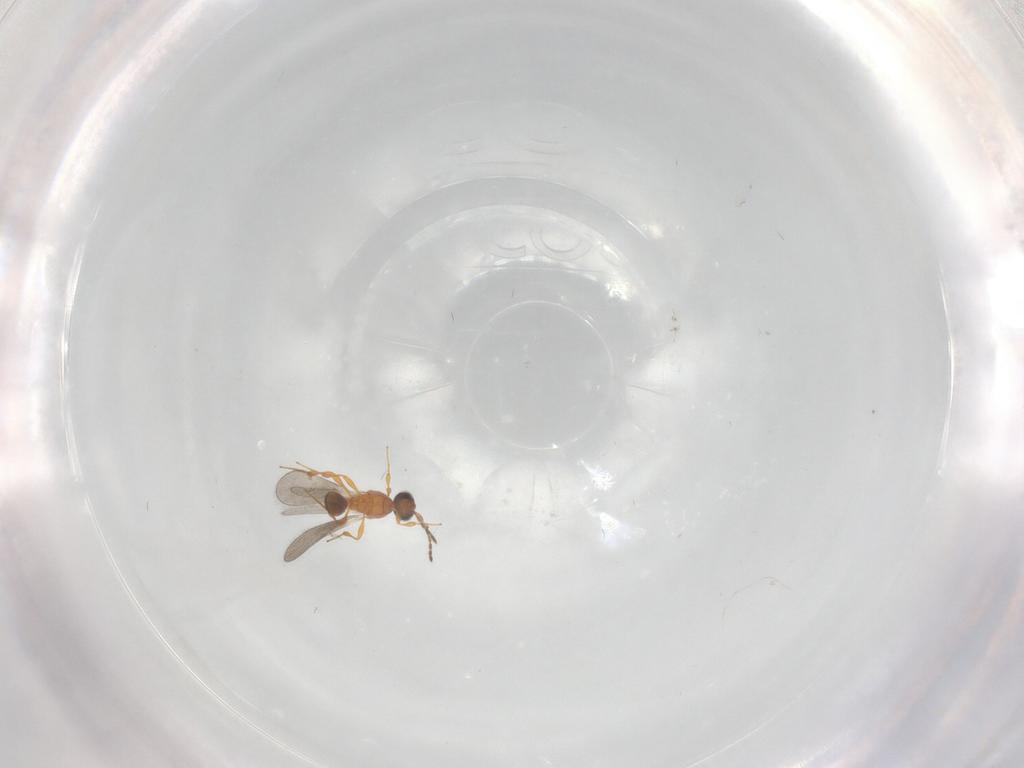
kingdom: Animalia
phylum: Arthropoda
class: Insecta
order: Hymenoptera
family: Platygastridae
